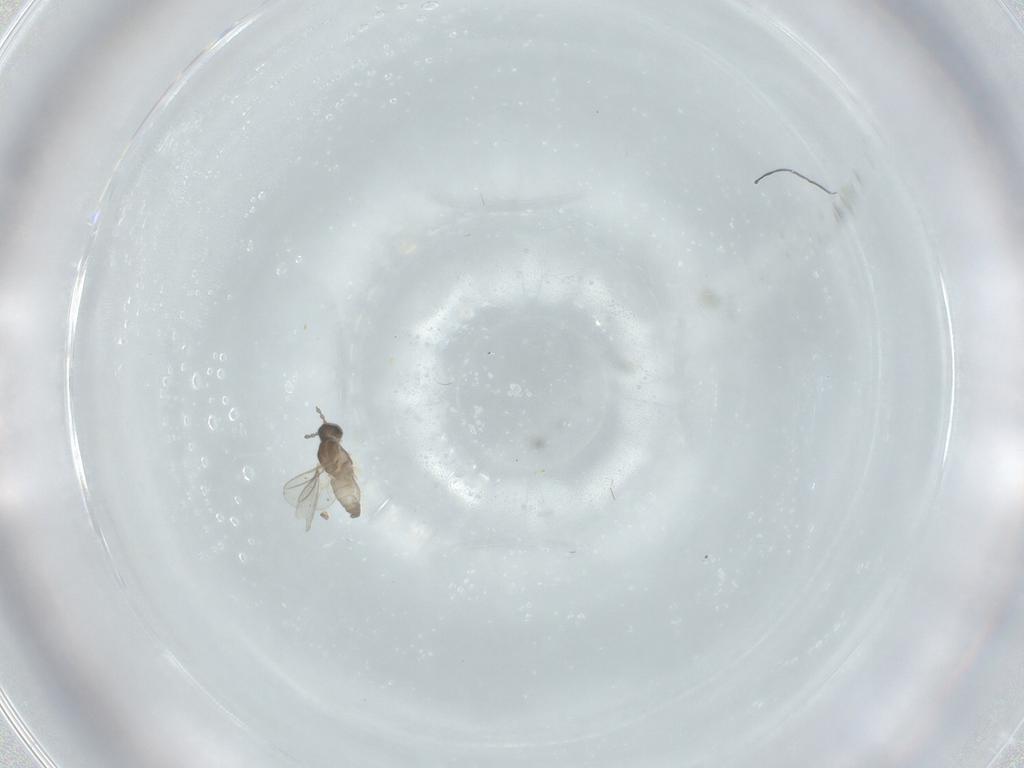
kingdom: Animalia
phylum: Arthropoda
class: Insecta
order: Diptera
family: Cecidomyiidae
